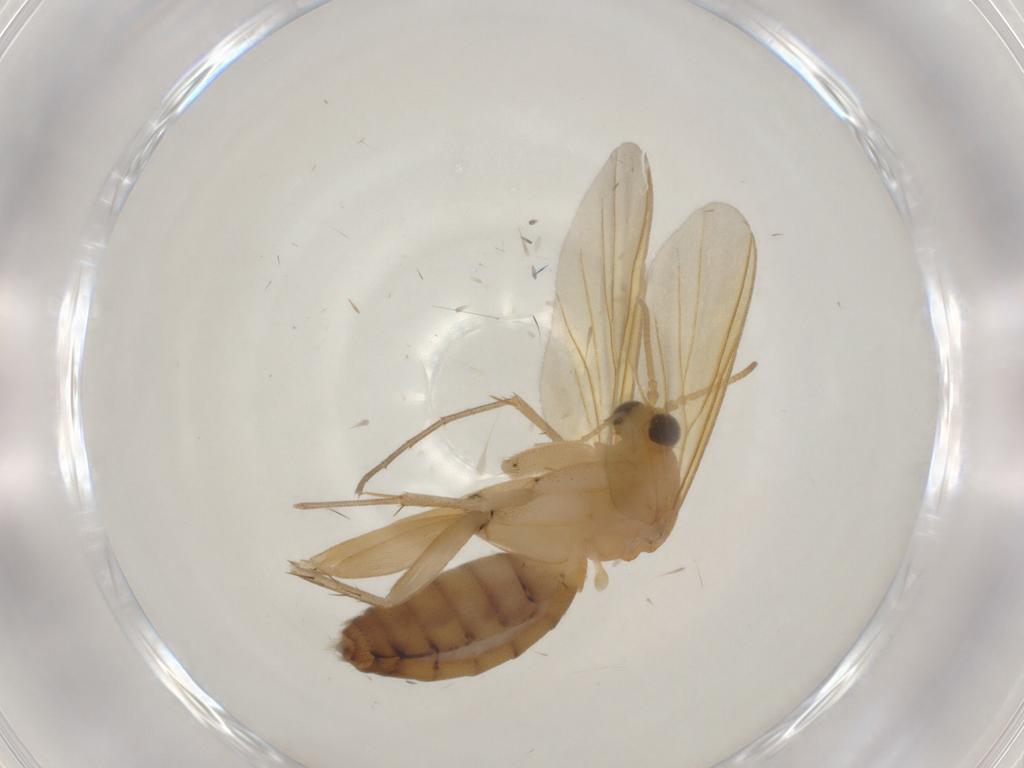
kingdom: Animalia
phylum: Arthropoda
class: Insecta
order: Diptera
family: Mycetophilidae
